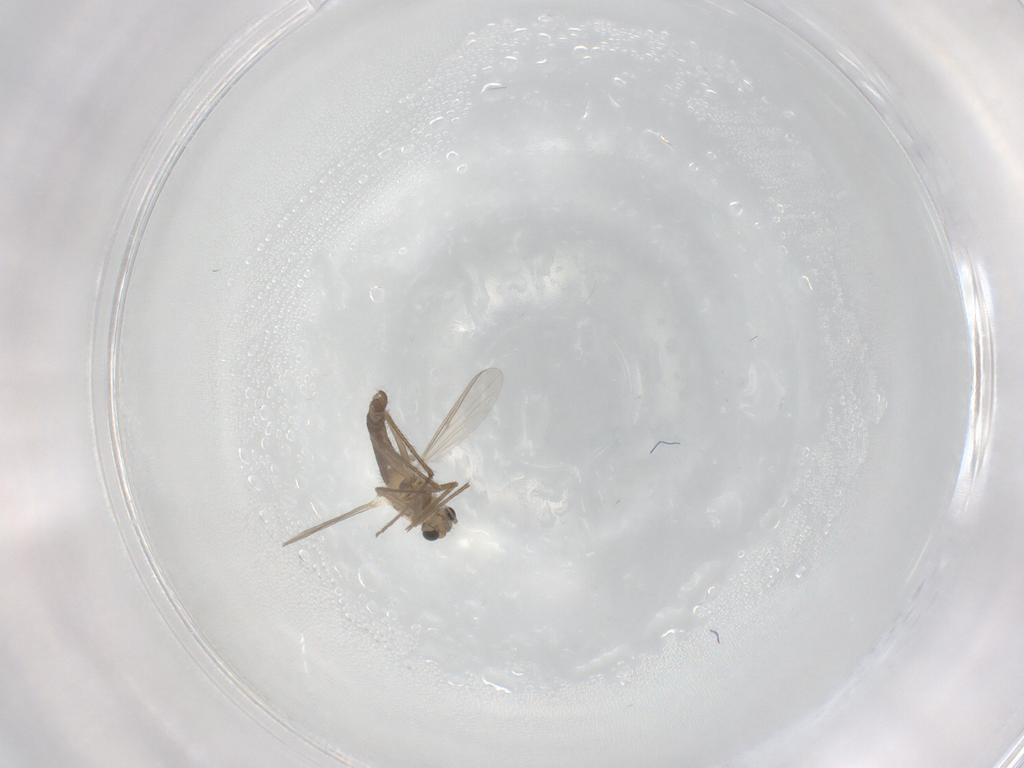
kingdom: Animalia
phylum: Arthropoda
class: Insecta
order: Diptera
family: Chironomidae
